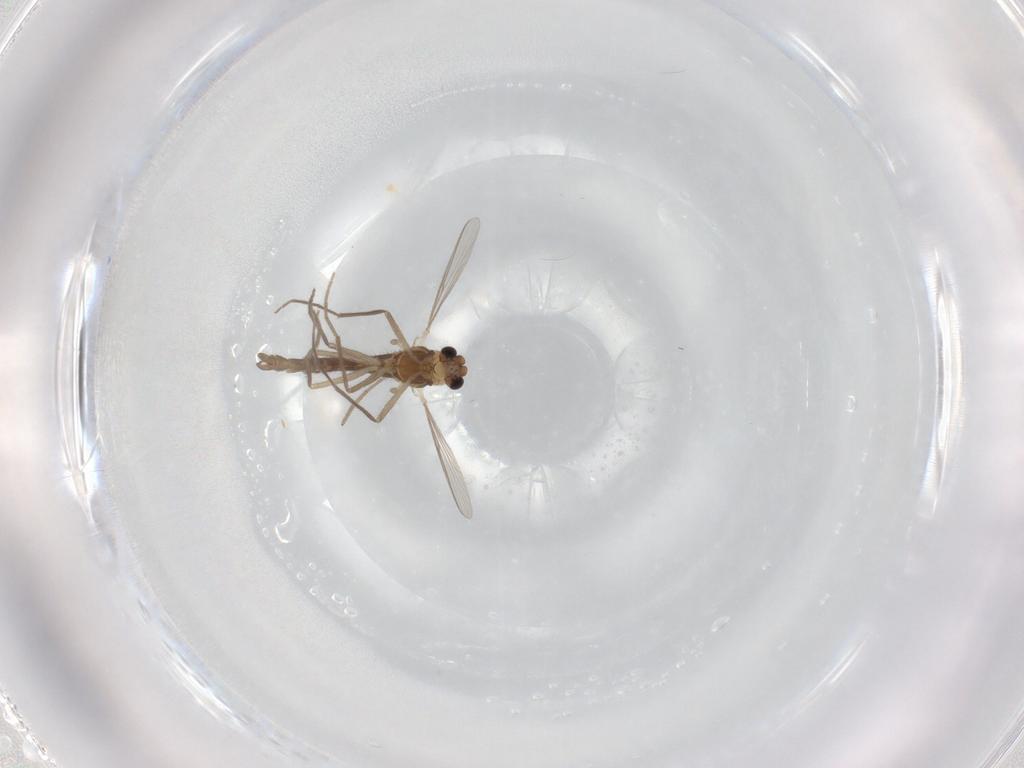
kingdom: Animalia
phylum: Arthropoda
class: Insecta
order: Diptera
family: Chironomidae
